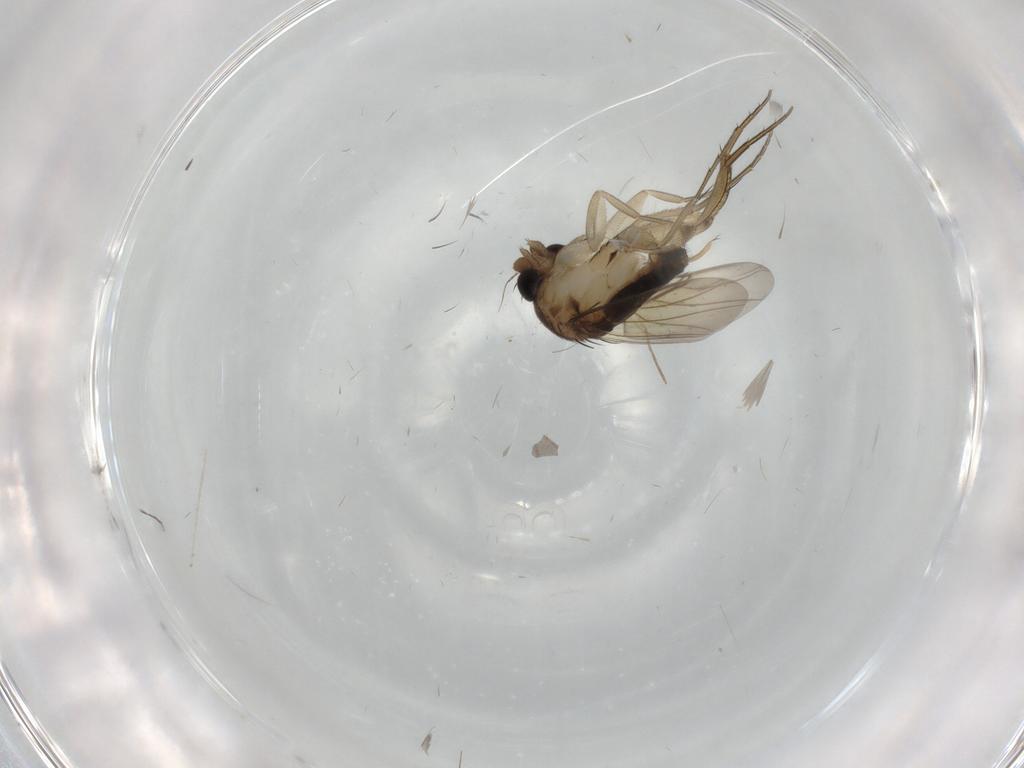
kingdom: Animalia
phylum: Arthropoda
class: Insecta
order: Diptera
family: Phoridae
